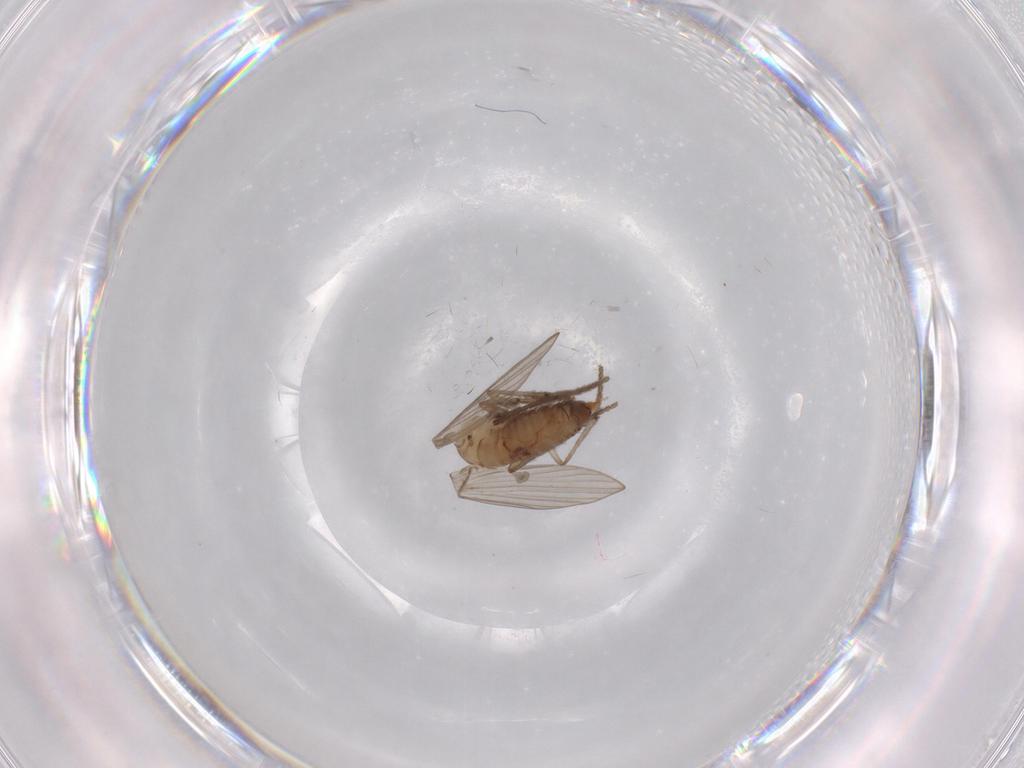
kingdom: Animalia
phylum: Arthropoda
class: Insecta
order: Diptera
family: Psychodidae
